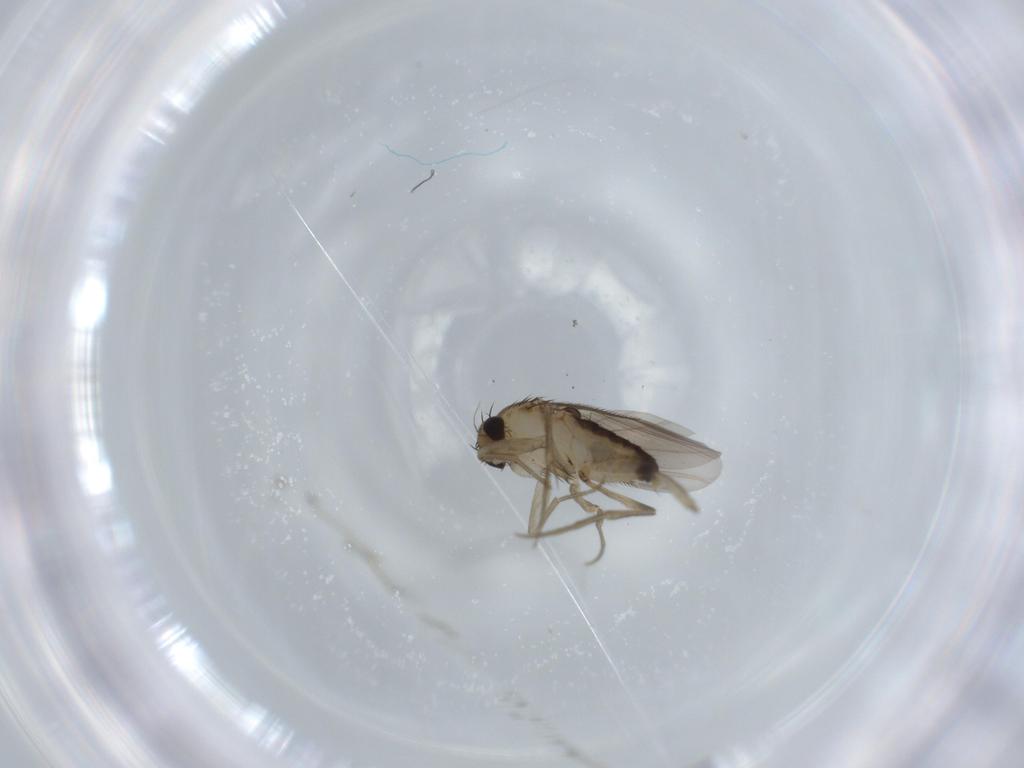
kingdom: Animalia
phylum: Arthropoda
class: Insecta
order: Diptera
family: Phoridae
